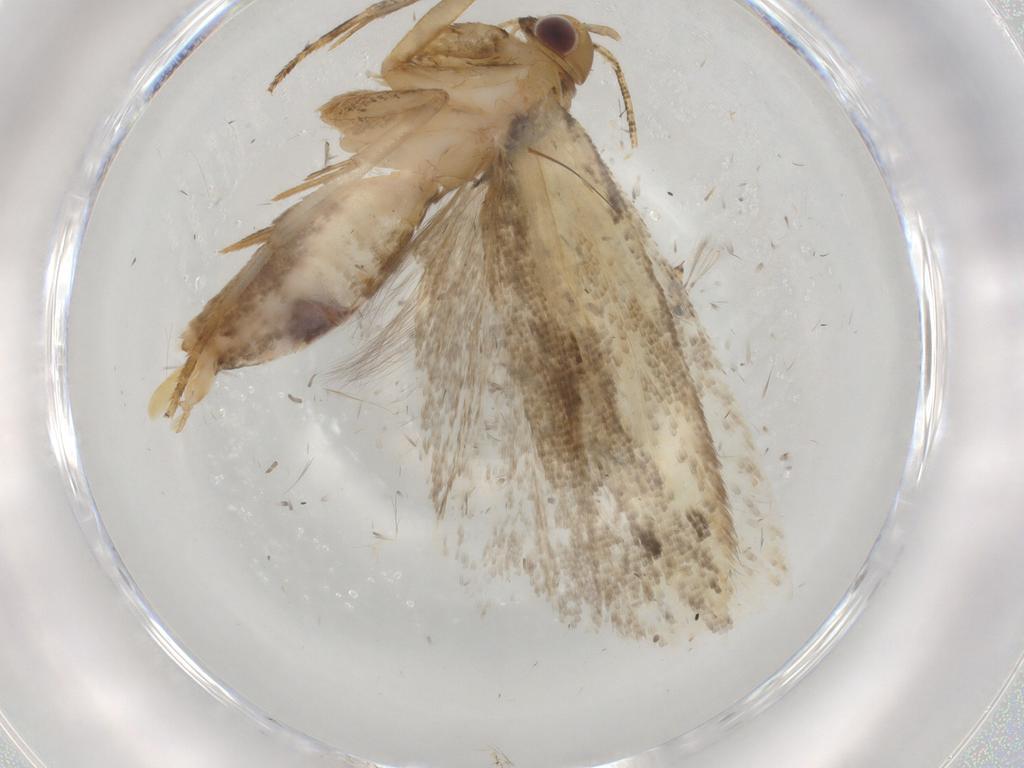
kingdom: Animalia
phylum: Arthropoda
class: Insecta
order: Lepidoptera
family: Gelechiidae
